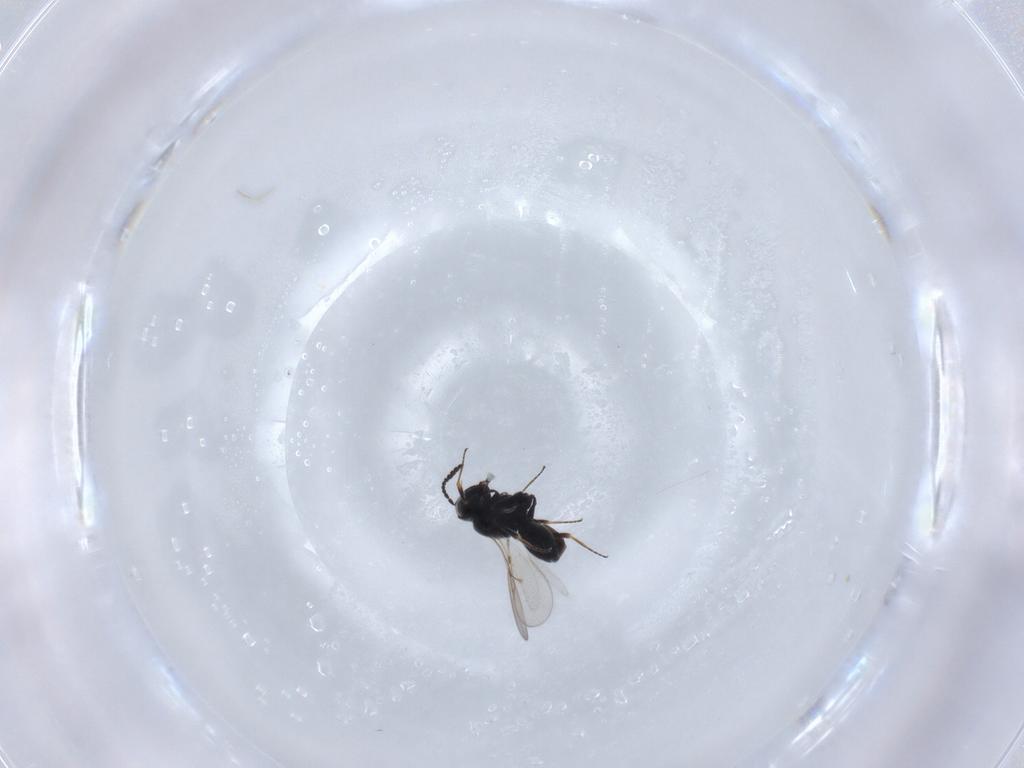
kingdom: Animalia
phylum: Arthropoda
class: Insecta
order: Hymenoptera
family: Scelionidae
